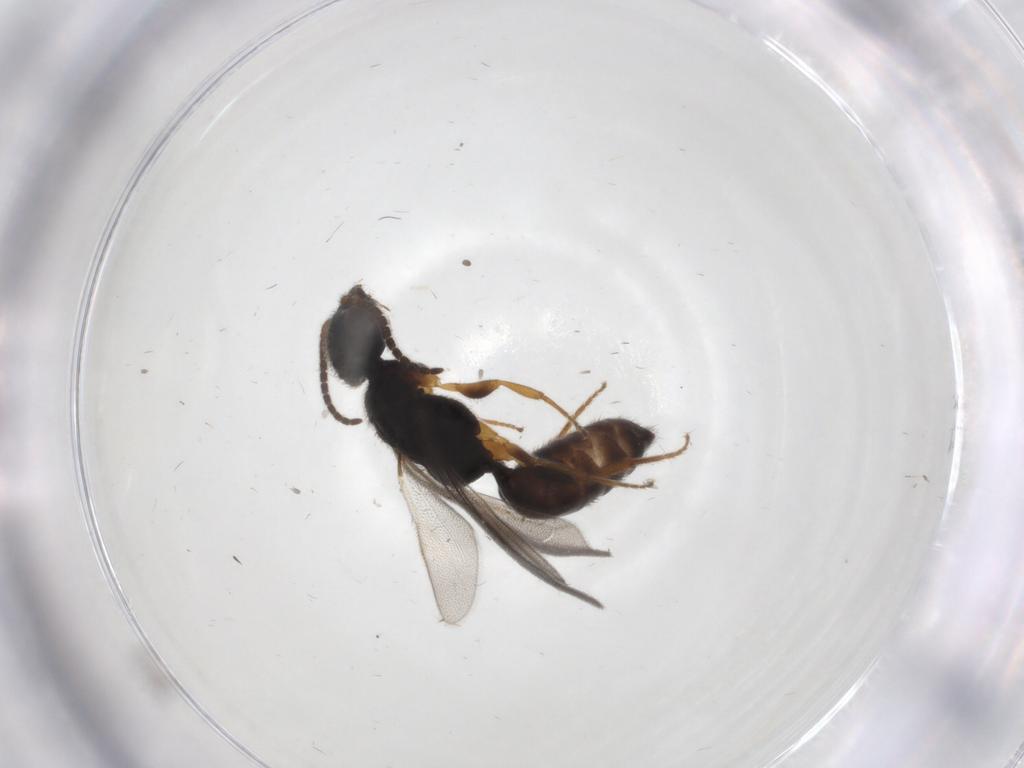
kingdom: Animalia
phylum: Arthropoda
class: Insecta
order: Hymenoptera
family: Bethylidae
